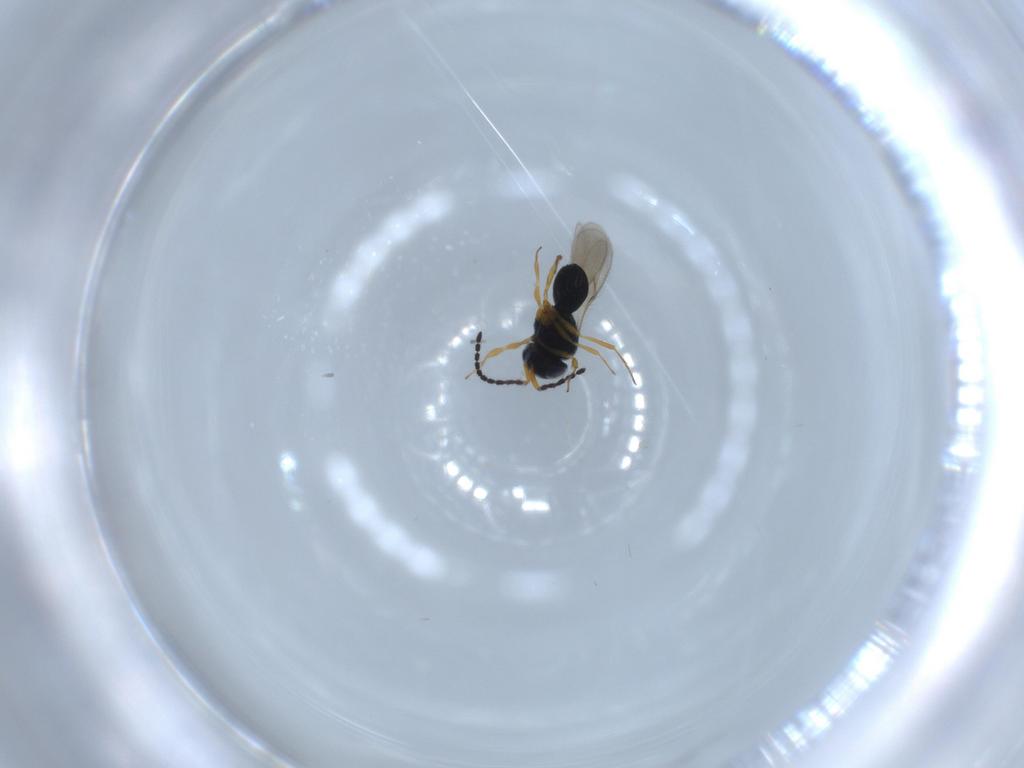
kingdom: Animalia
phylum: Arthropoda
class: Insecta
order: Hymenoptera
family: Scelionidae
